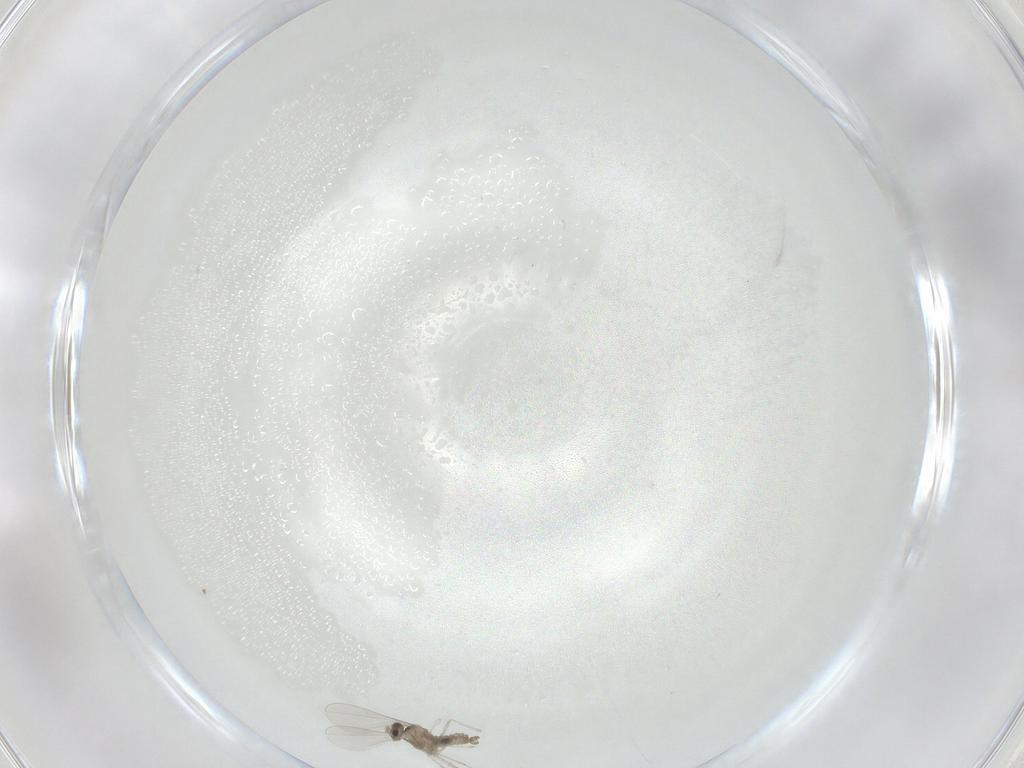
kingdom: Animalia
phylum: Arthropoda
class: Insecta
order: Diptera
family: Cecidomyiidae
